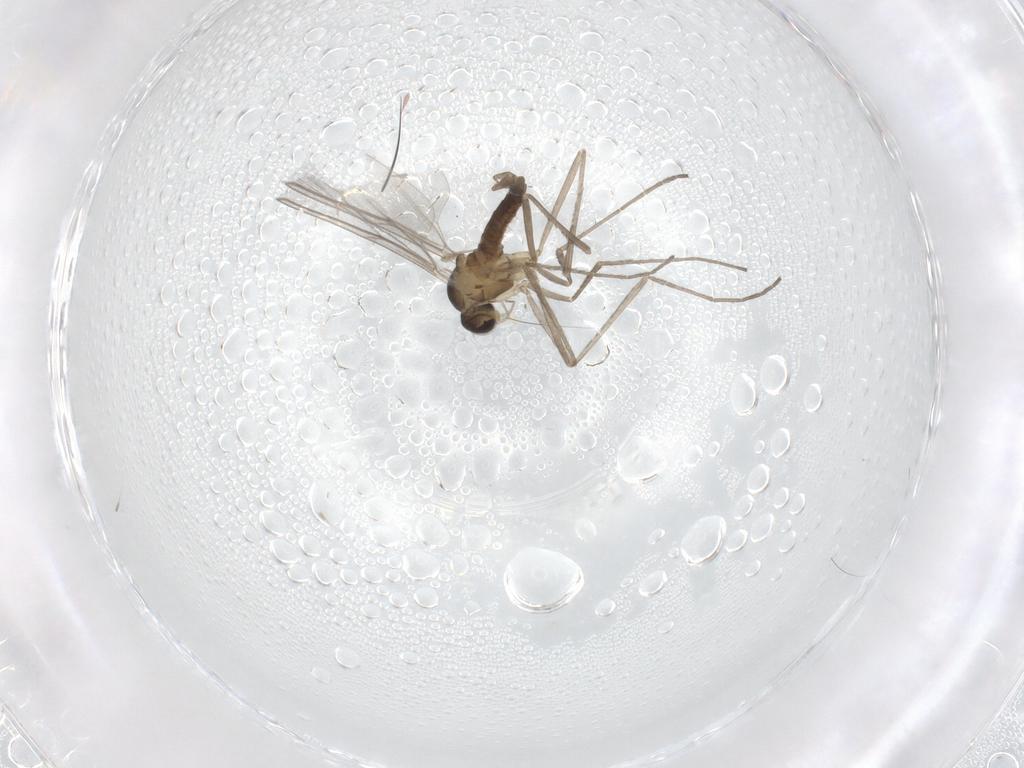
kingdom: Animalia
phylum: Arthropoda
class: Insecta
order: Diptera
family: Cecidomyiidae
